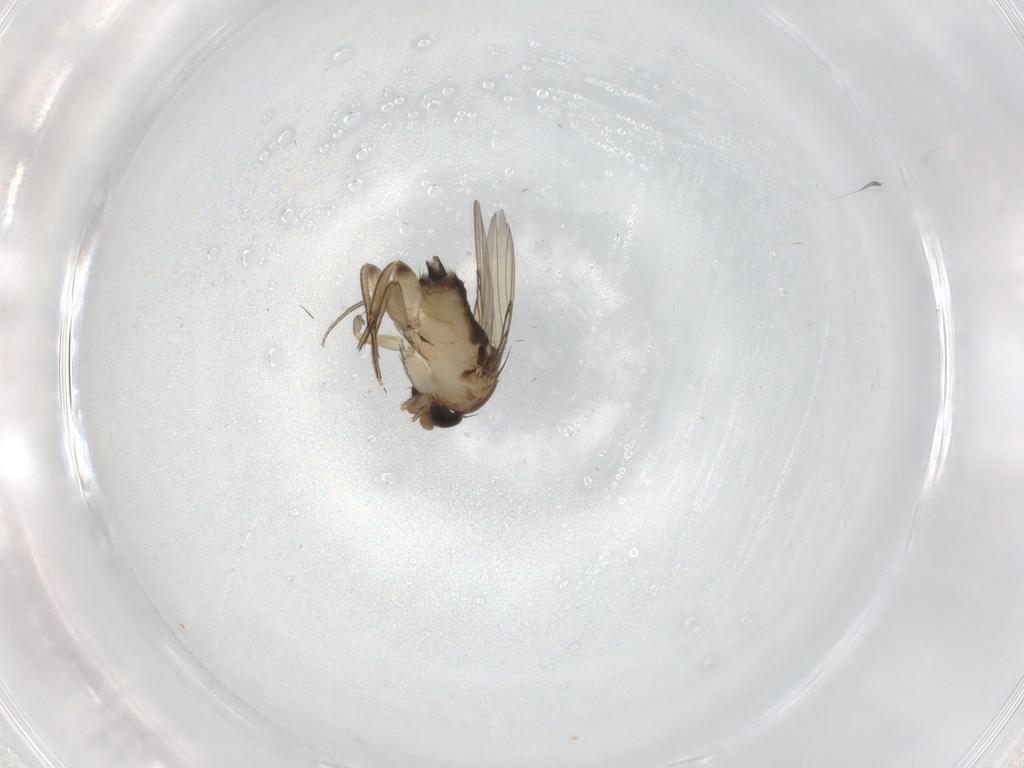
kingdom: Animalia
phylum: Arthropoda
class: Insecta
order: Diptera
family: Phoridae
